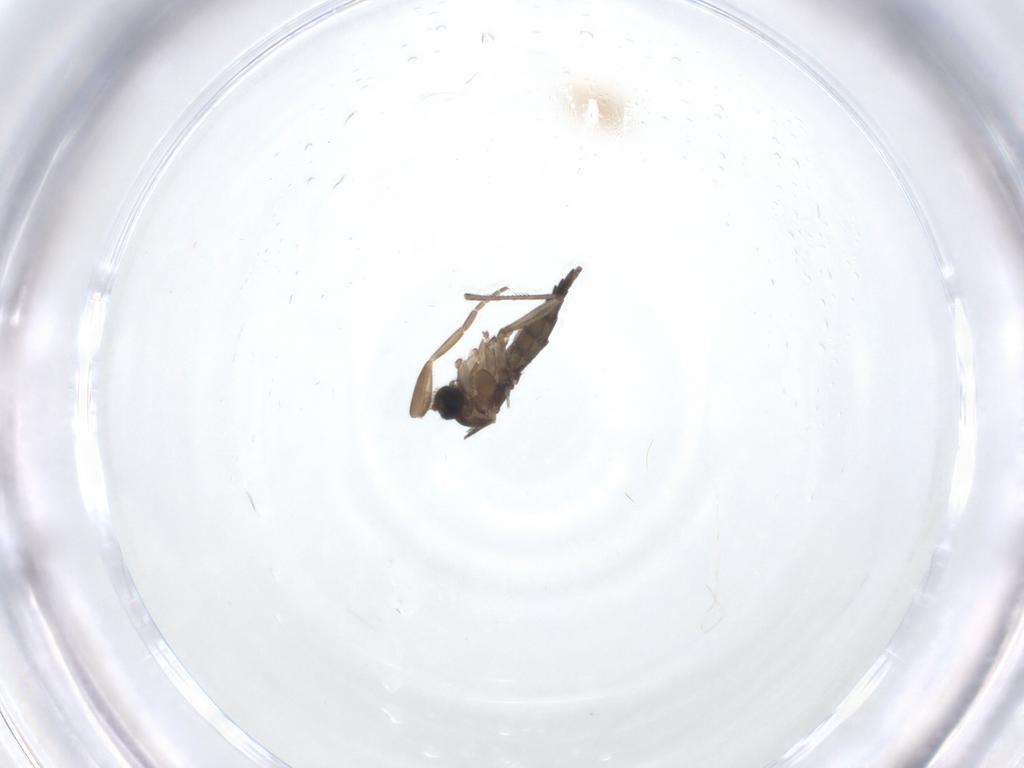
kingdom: Animalia
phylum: Arthropoda
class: Insecta
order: Diptera
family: Sciaridae
